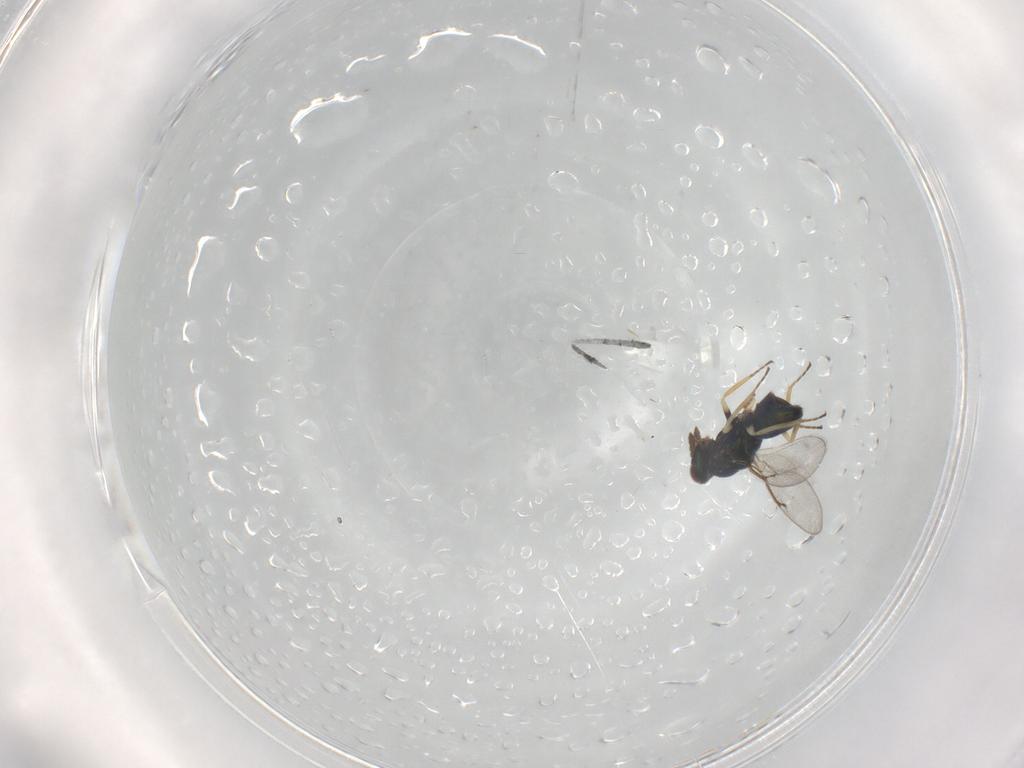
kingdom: Animalia
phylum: Arthropoda
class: Insecta
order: Hymenoptera
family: Eulophidae
